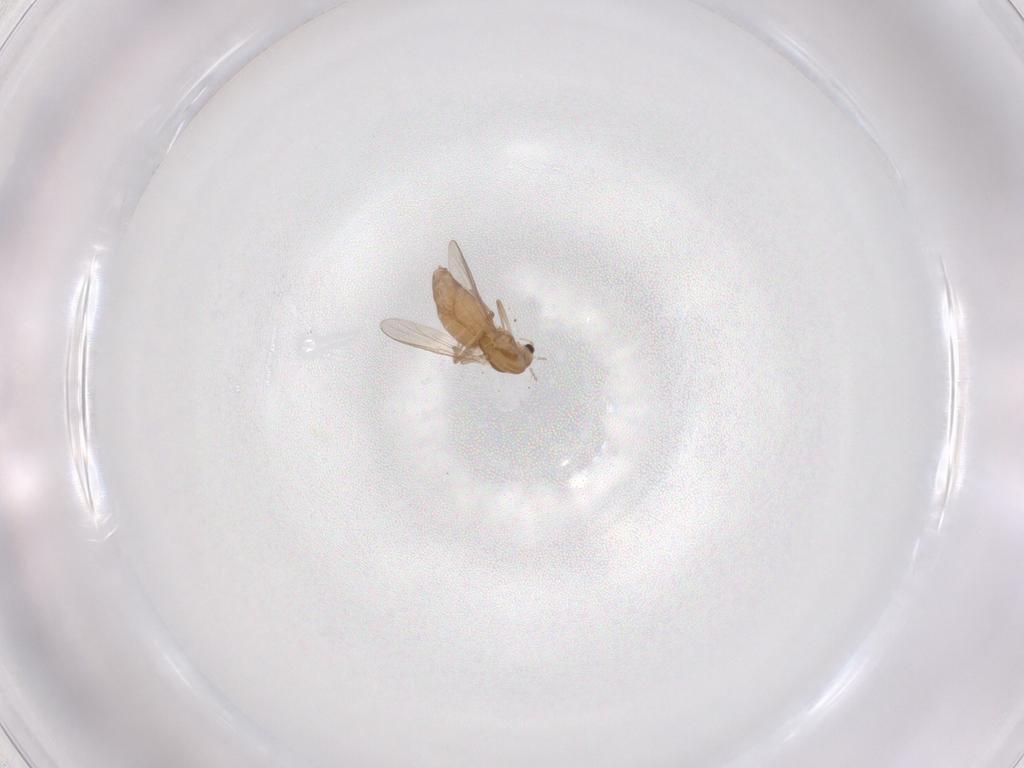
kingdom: Animalia
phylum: Arthropoda
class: Insecta
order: Diptera
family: Chironomidae
